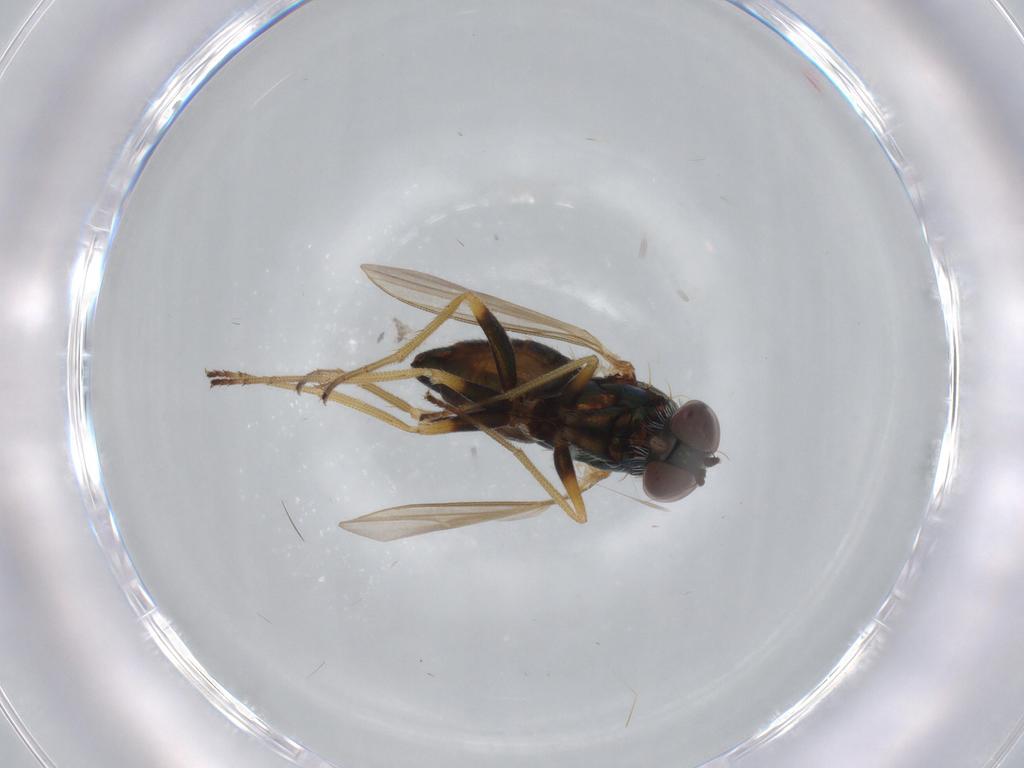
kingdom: Animalia
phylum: Arthropoda
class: Insecta
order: Diptera
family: Dolichopodidae
